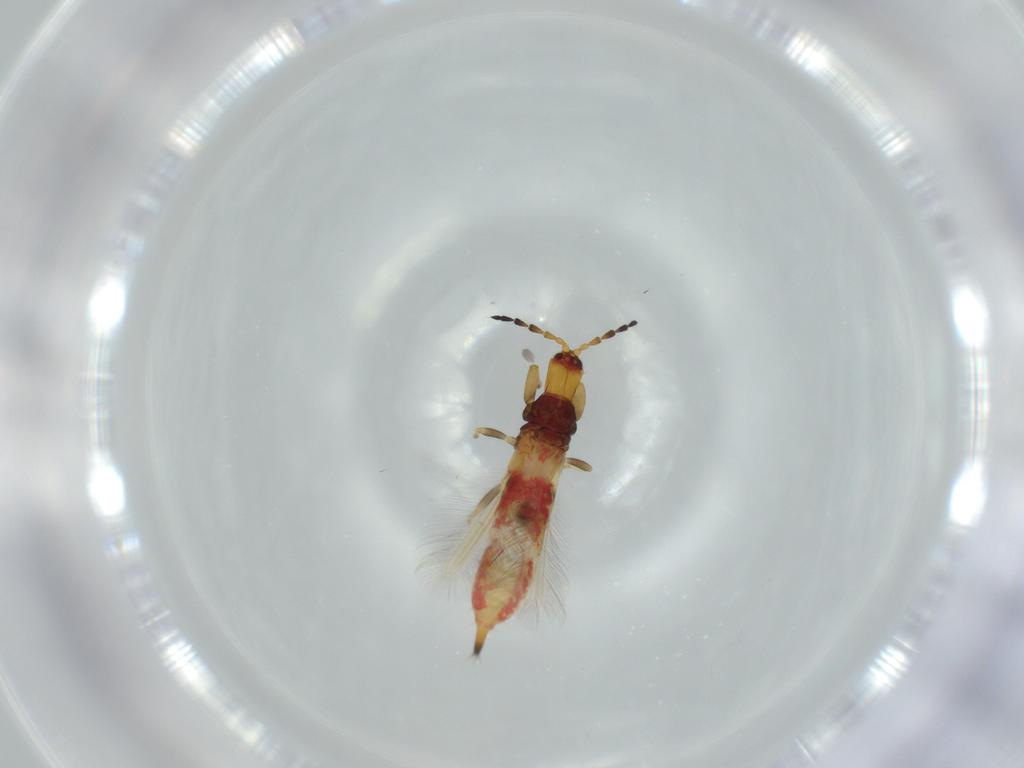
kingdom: Animalia
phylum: Arthropoda
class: Insecta
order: Thysanoptera
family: Phlaeothripidae
